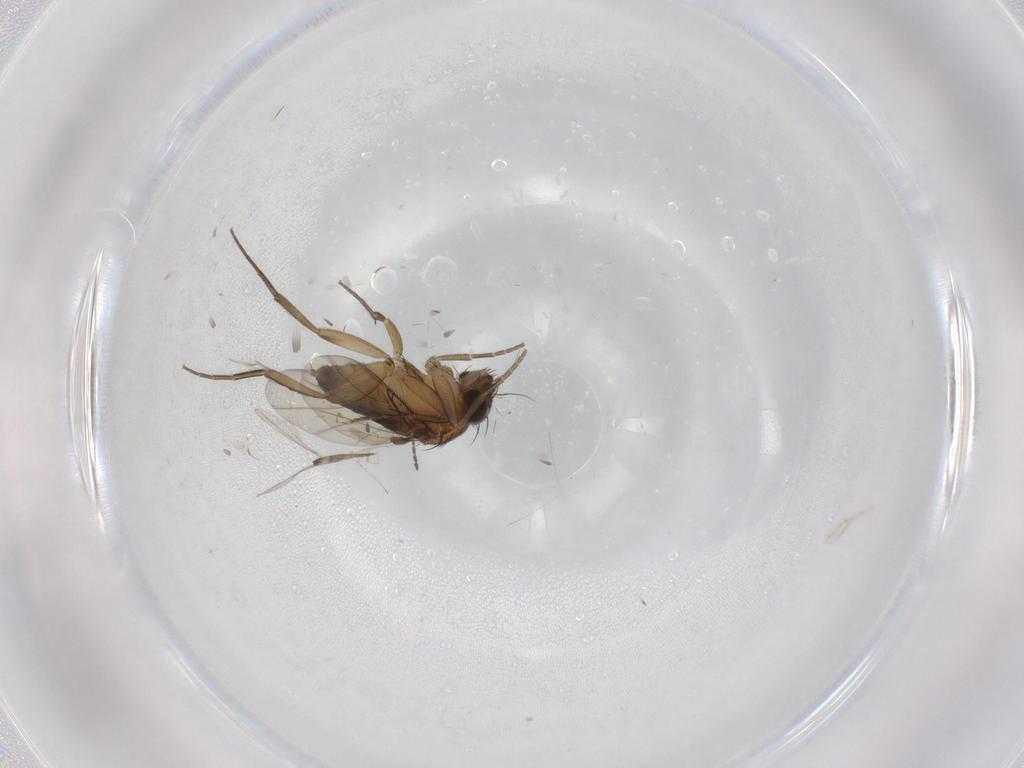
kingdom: Animalia
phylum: Arthropoda
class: Insecta
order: Diptera
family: Phoridae
